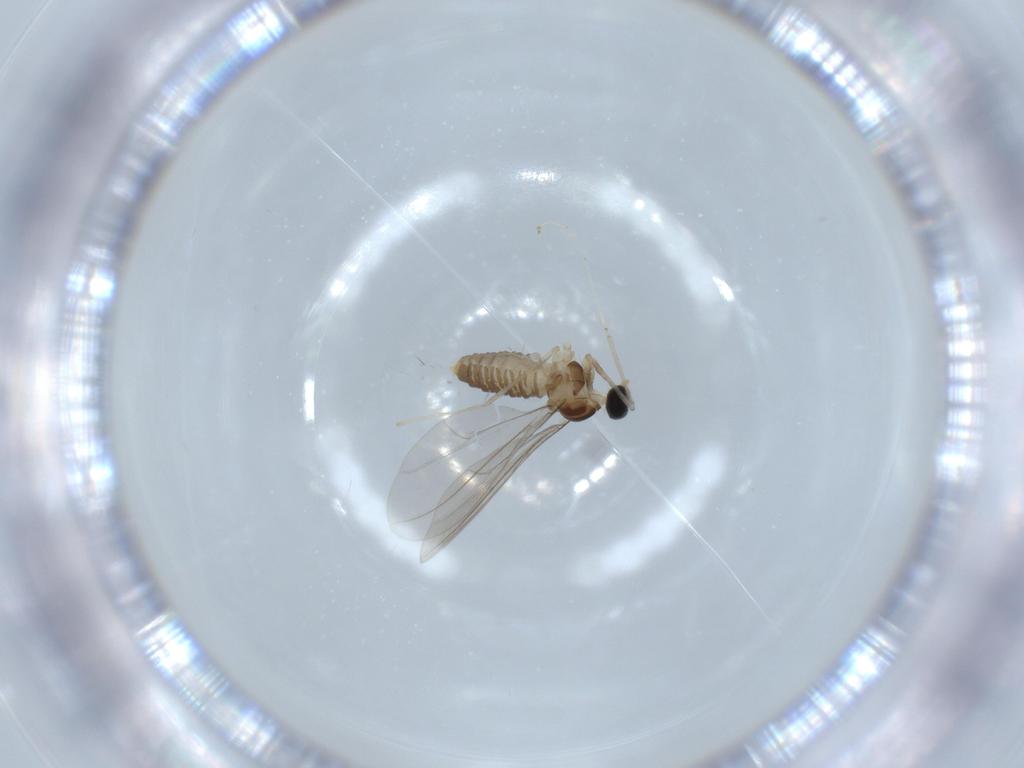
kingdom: Animalia
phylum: Arthropoda
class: Insecta
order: Diptera
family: Cecidomyiidae
